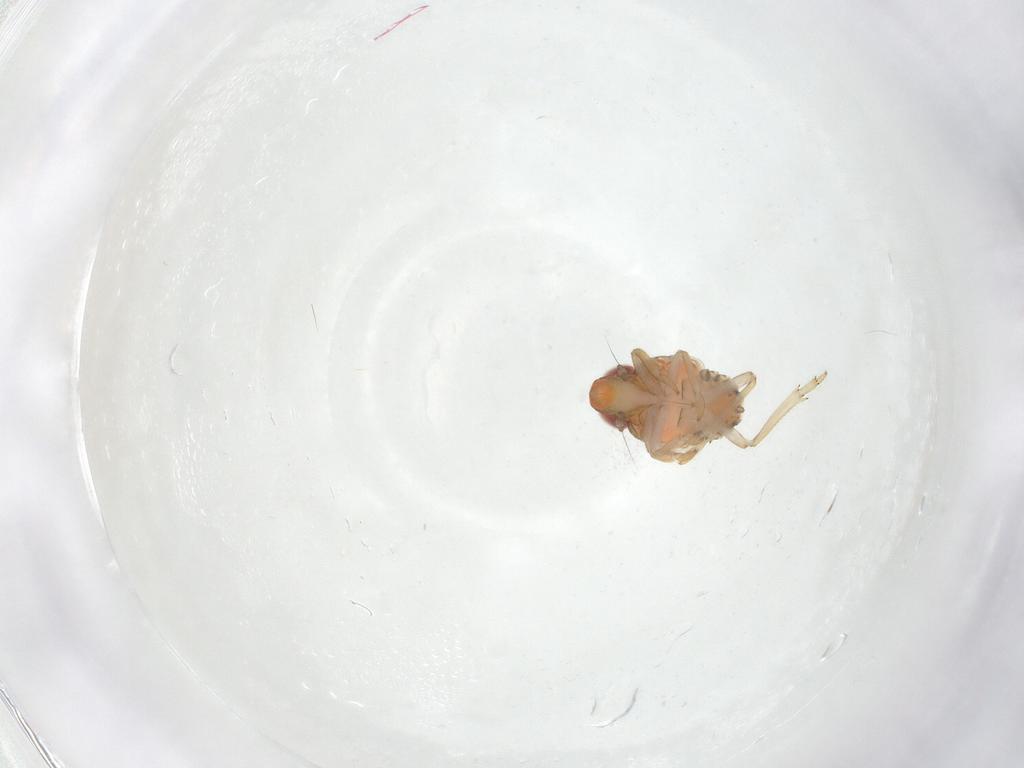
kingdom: Animalia
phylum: Arthropoda
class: Insecta
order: Hemiptera
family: Fulgoroidea_incertae_sedis
